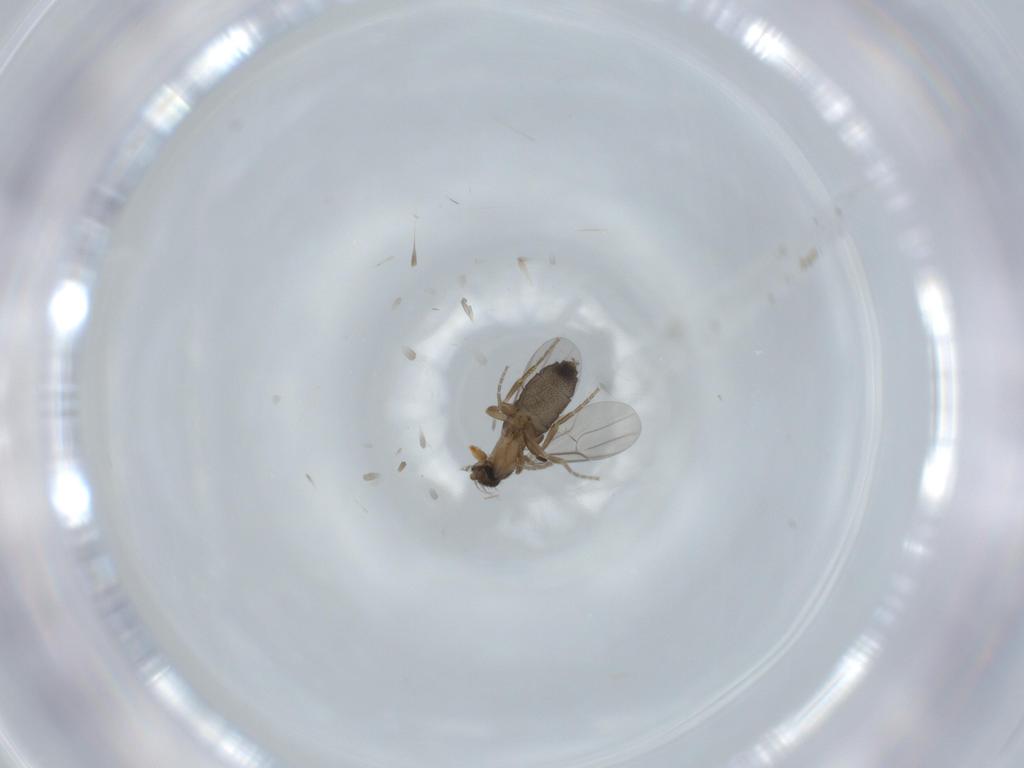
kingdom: Animalia
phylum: Arthropoda
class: Insecta
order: Diptera
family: Phoridae
